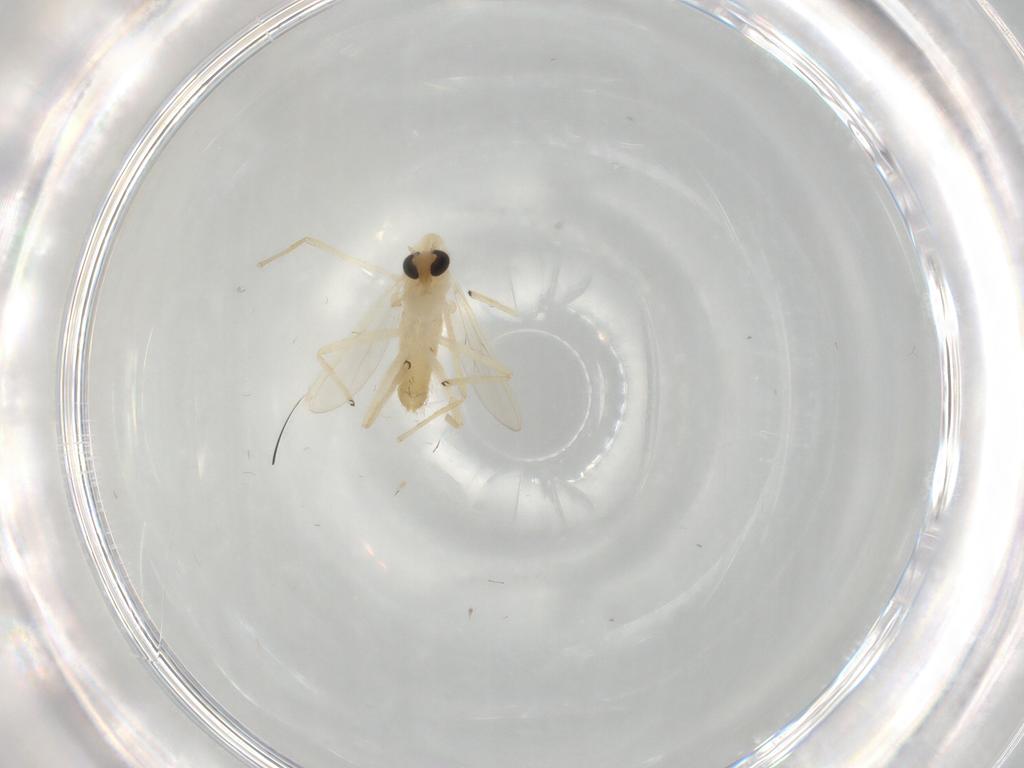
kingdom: Animalia
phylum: Arthropoda
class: Insecta
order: Diptera
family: Chironomidae
